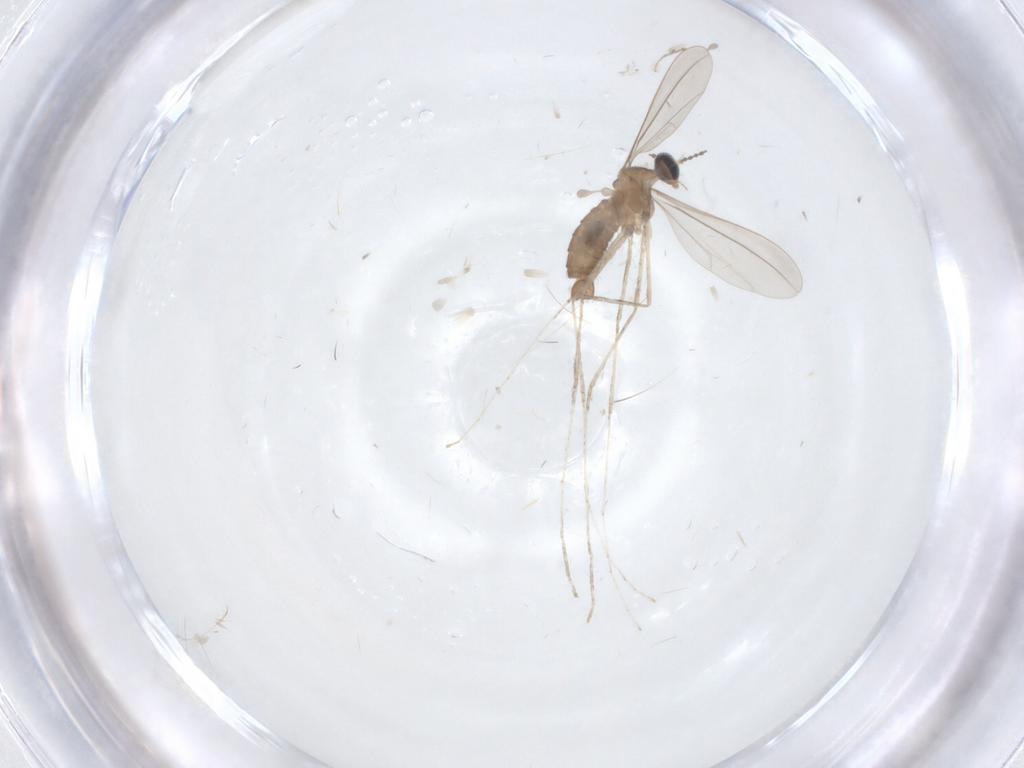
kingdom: Animalia
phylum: Arthropoda
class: Insecta
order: Diptera
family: Cecidomyiidae
